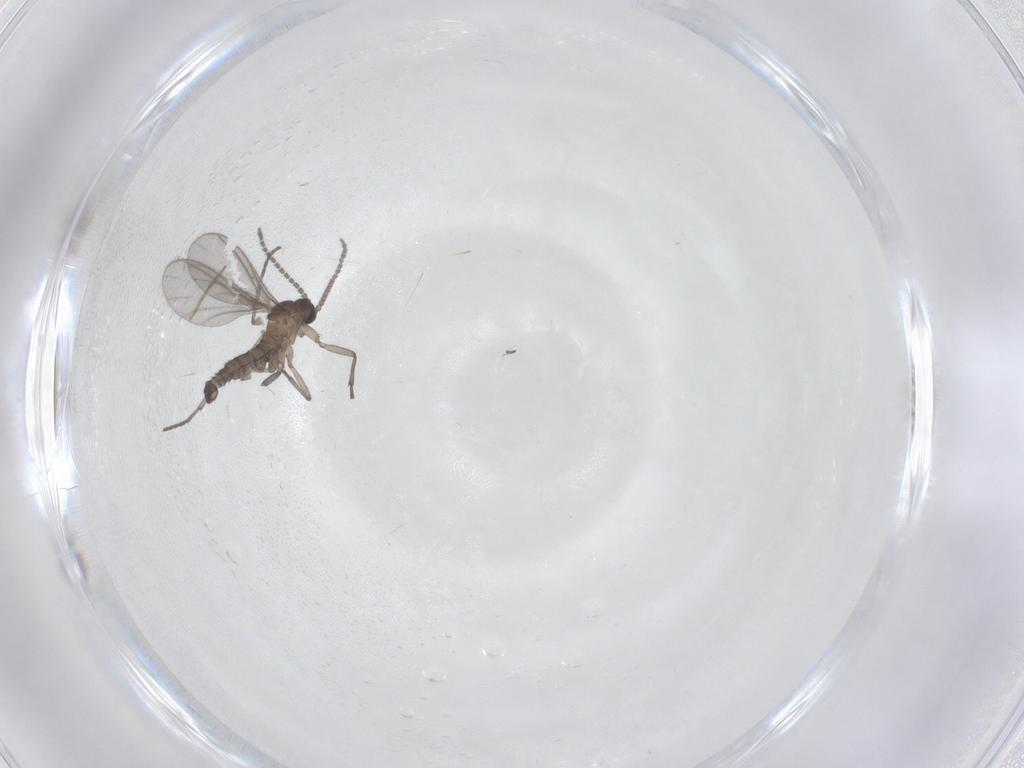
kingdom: Animalia
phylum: Arthropoda
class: Insecta
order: Diptera
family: Sciaridae
